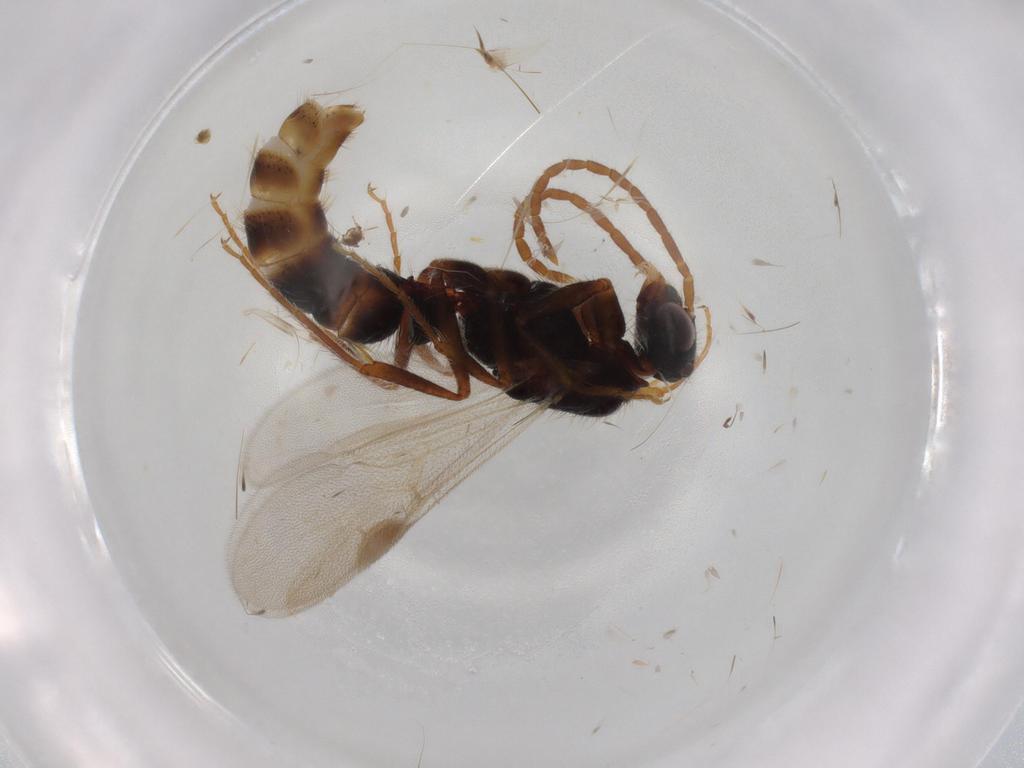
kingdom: Animalia
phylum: Arthropoda
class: Insecta
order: Hymenoptera
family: Formicidae
